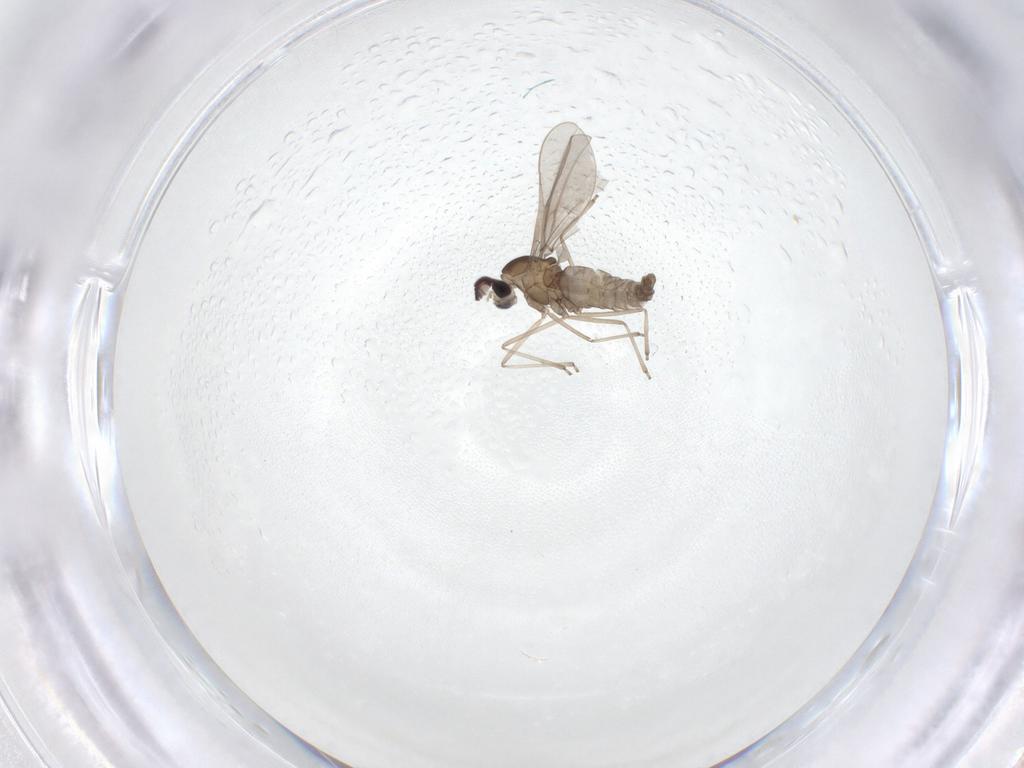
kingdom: Animalia
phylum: Arthropoda
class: Insecta
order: Diptera
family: Cecidomyiidae
